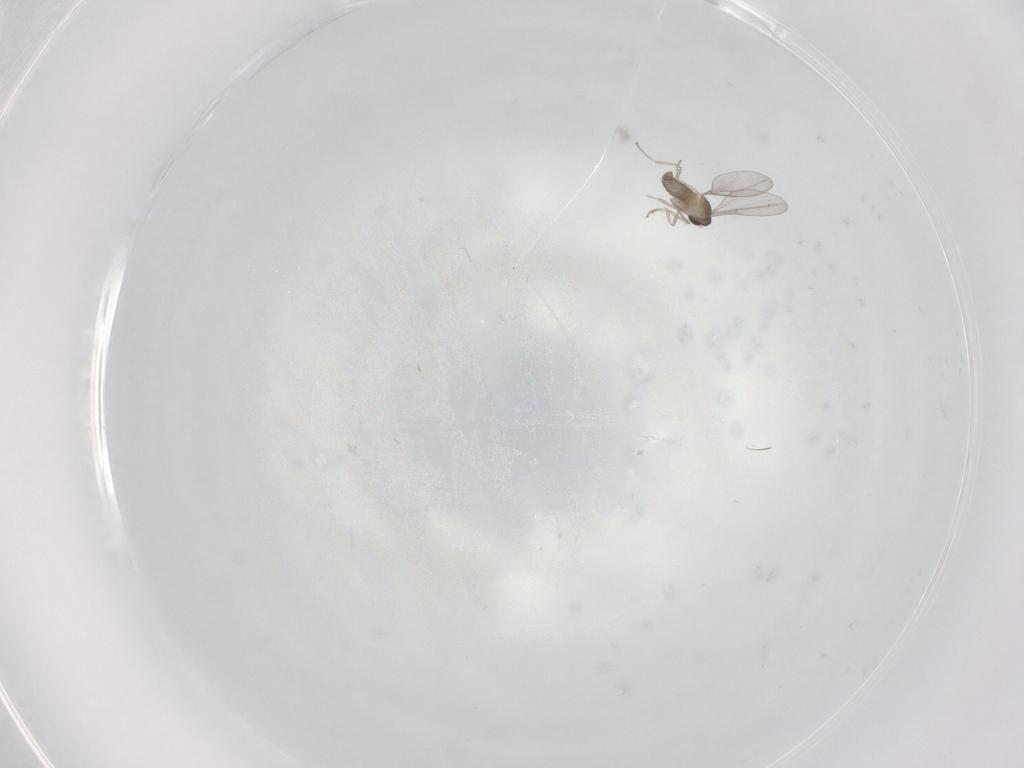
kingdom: Animalia
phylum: Arthropoda
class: Insecta
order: Diptera
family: Cecidomyiidae
